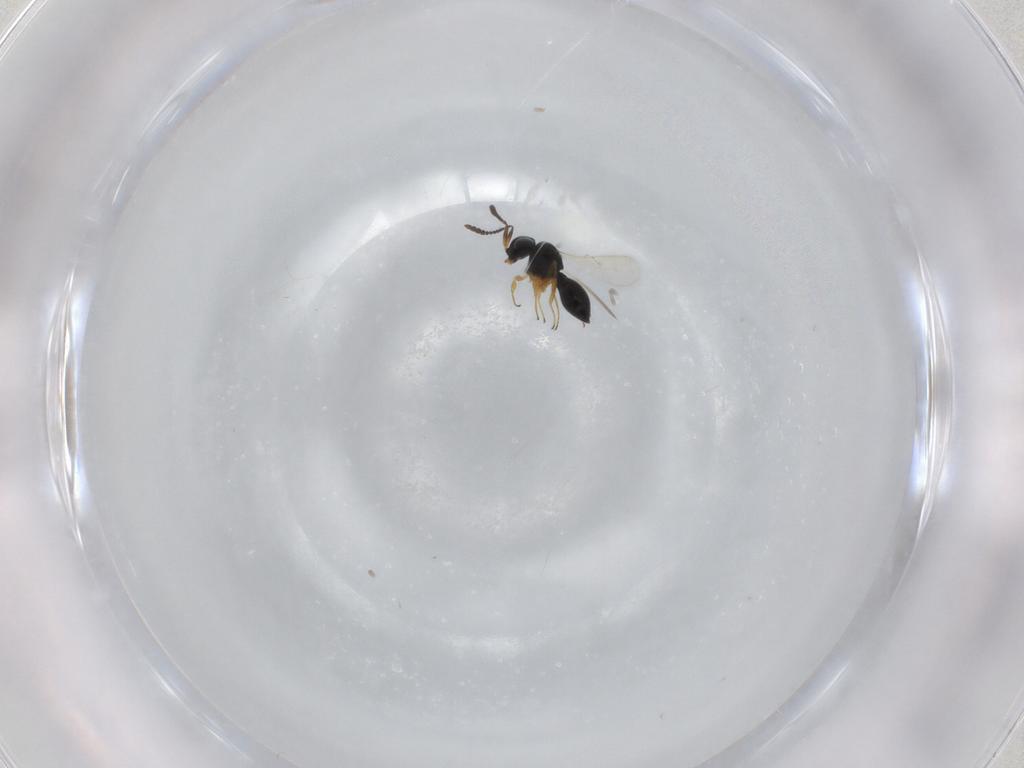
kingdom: Animalia
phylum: Arthropoda
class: Insecta
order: Hymenoptera
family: Scelionidae
